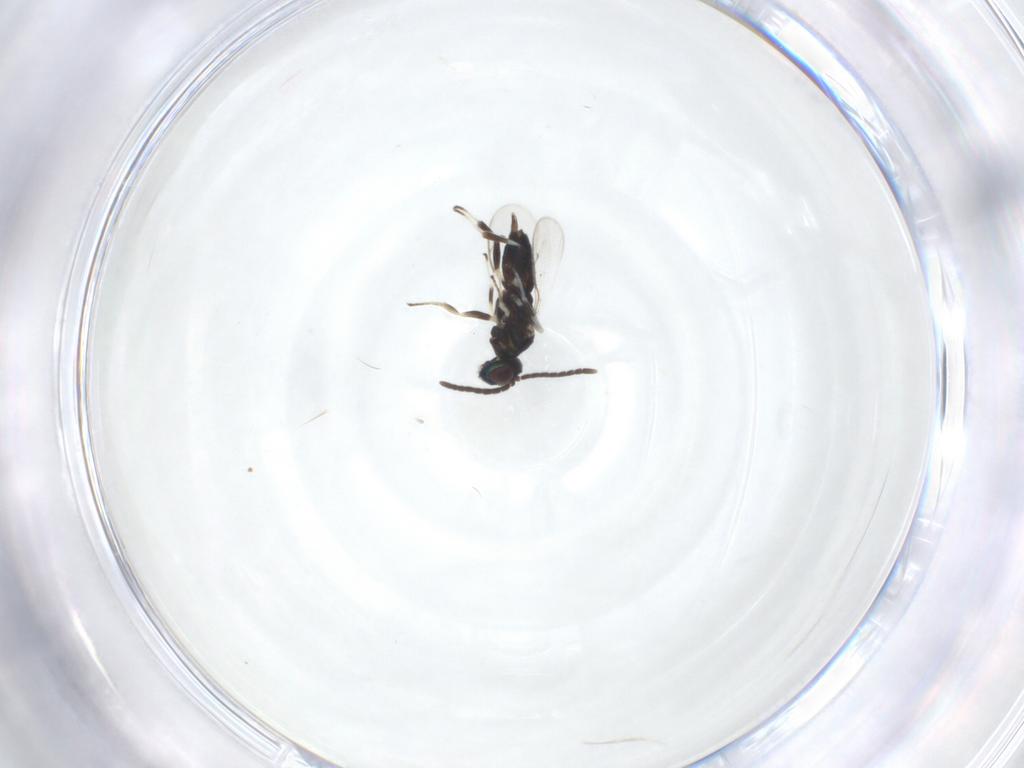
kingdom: Animalia
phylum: Arthropoda
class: Insecta
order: Hymenoptera
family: Eupelmidae
